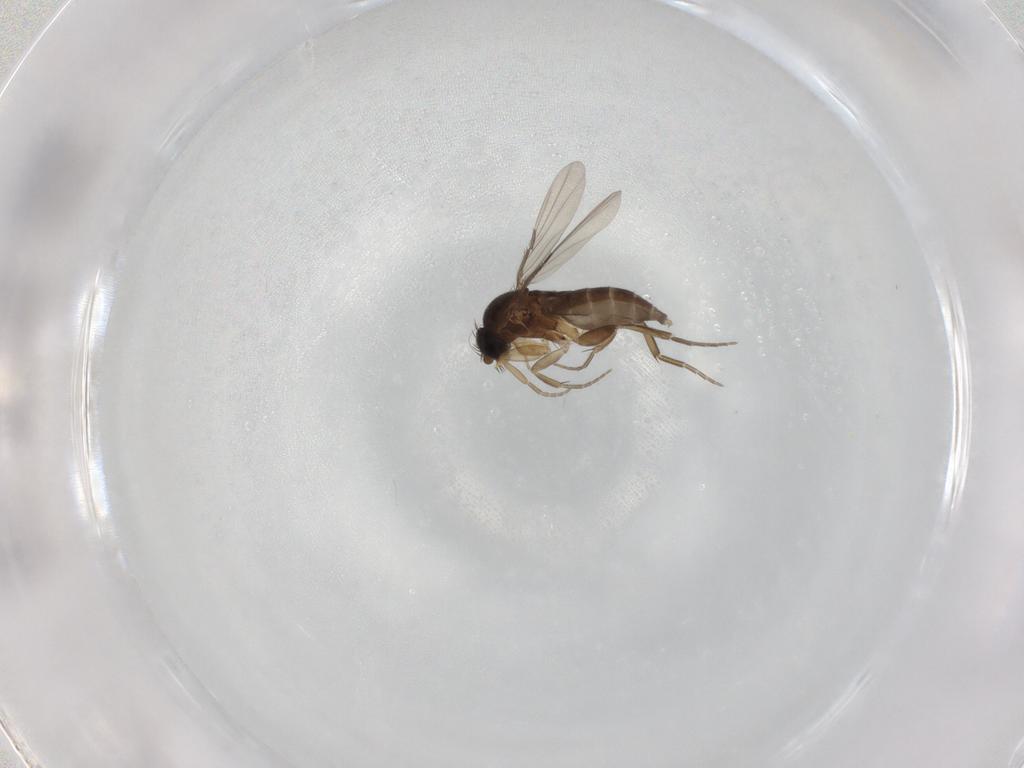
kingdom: Animalia
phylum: Arthropoda
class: Insecta
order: Diptera
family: Phoridae
